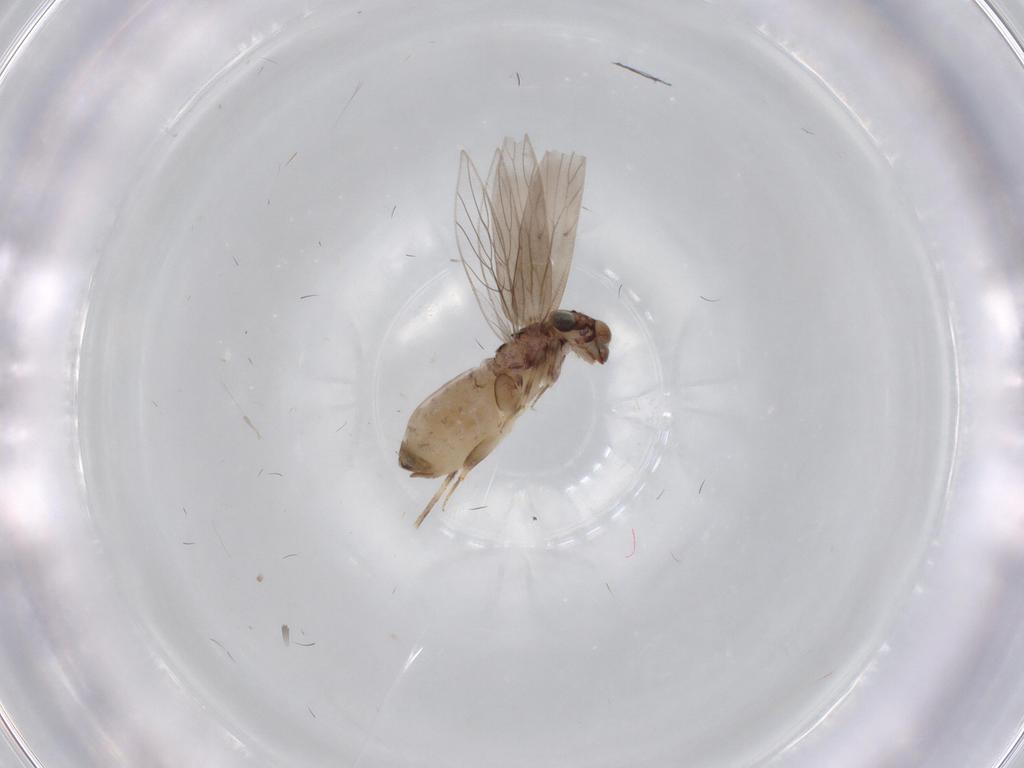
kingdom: Animalia
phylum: Arthropoda
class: Insecta
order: Psocodea
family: Lepidopsocidae
